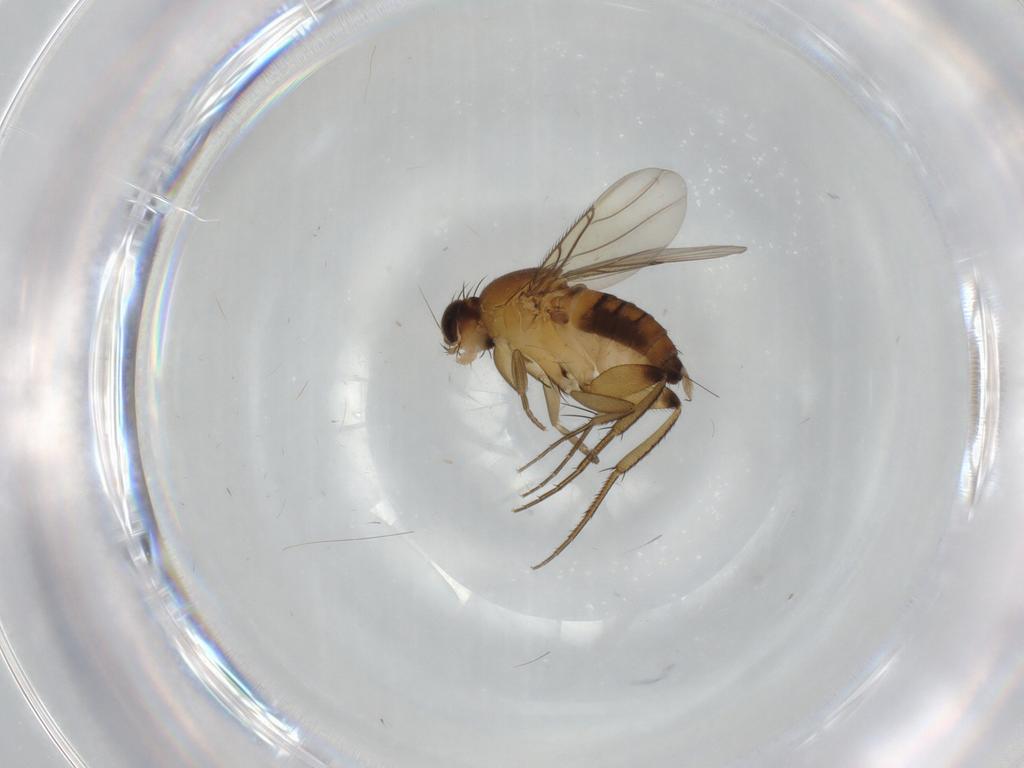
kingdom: Animalia
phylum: Arthropoda
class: Insecta
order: Diptera
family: Phoridae
